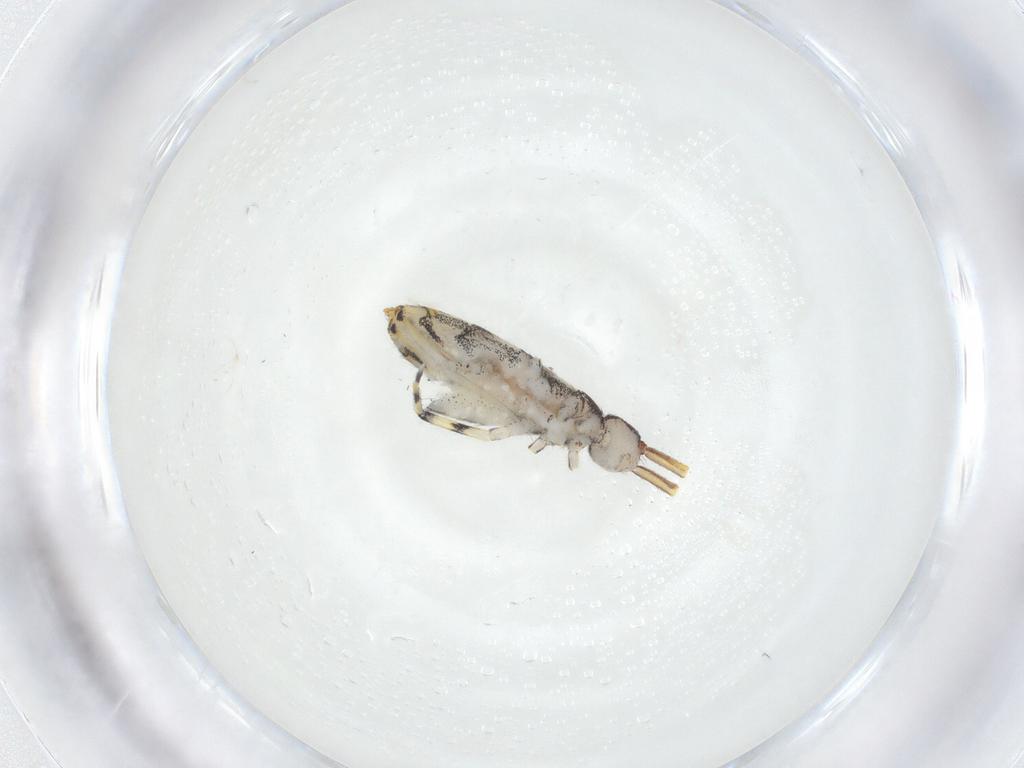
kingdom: Animalia
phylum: Arthropoda
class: Collembola
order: Entomobryomorpha
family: Entomobryidae
